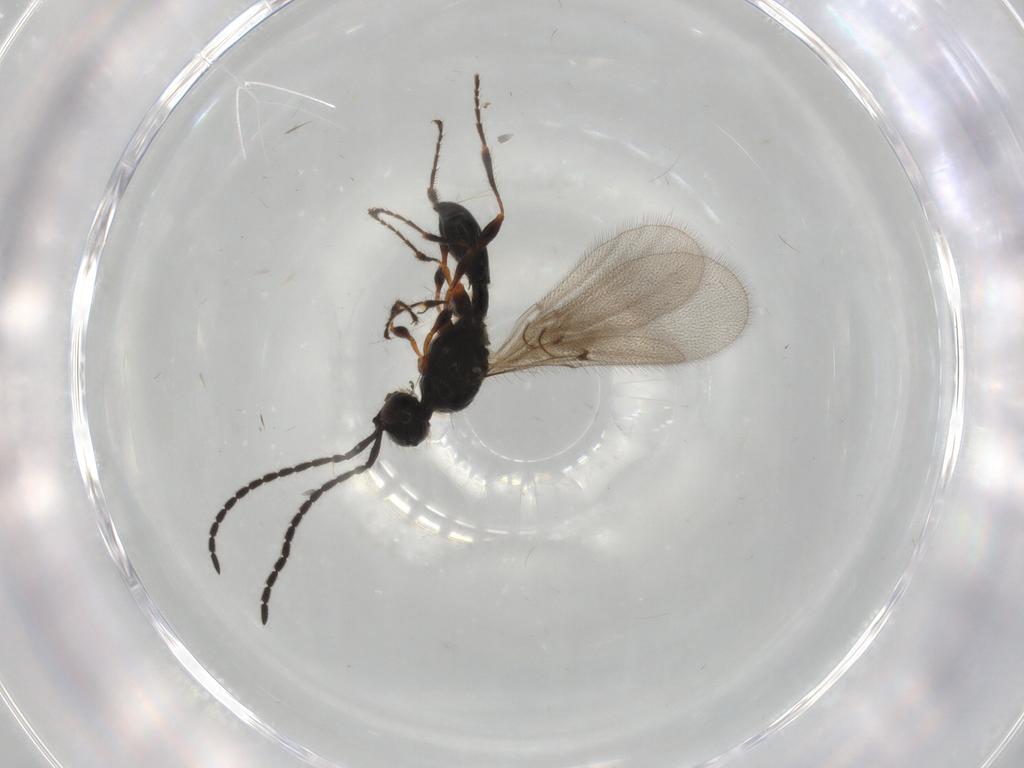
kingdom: Animalia
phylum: Arthropoda
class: Insecta
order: Hymenoptera
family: Diapriidae
